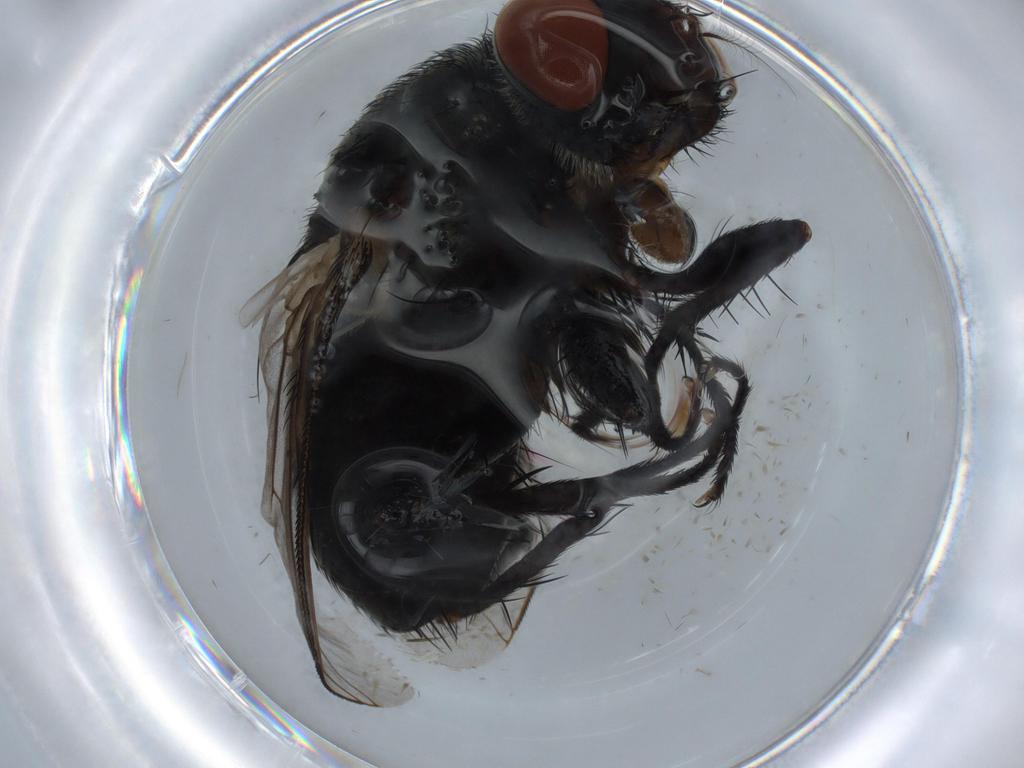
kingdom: Animalia
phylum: Arthropoda
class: Insecta
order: Diptera
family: Sarcophagidae
